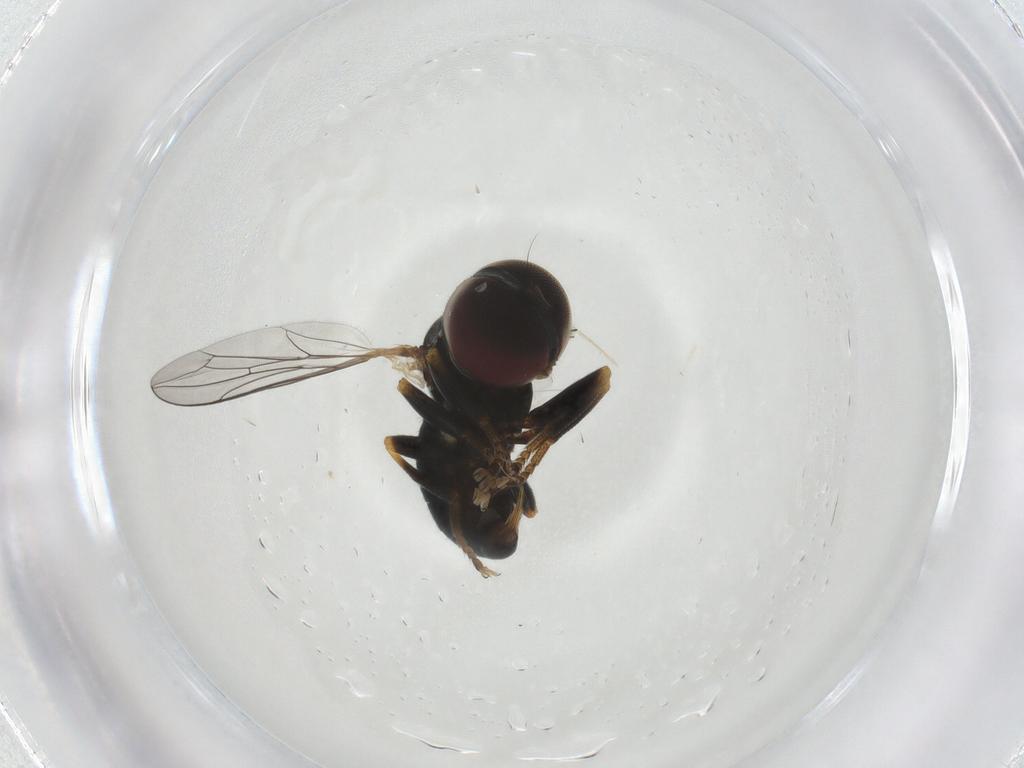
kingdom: Animalia
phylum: Arthropoda
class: Insecta
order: Diptera
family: Pipunculidae
